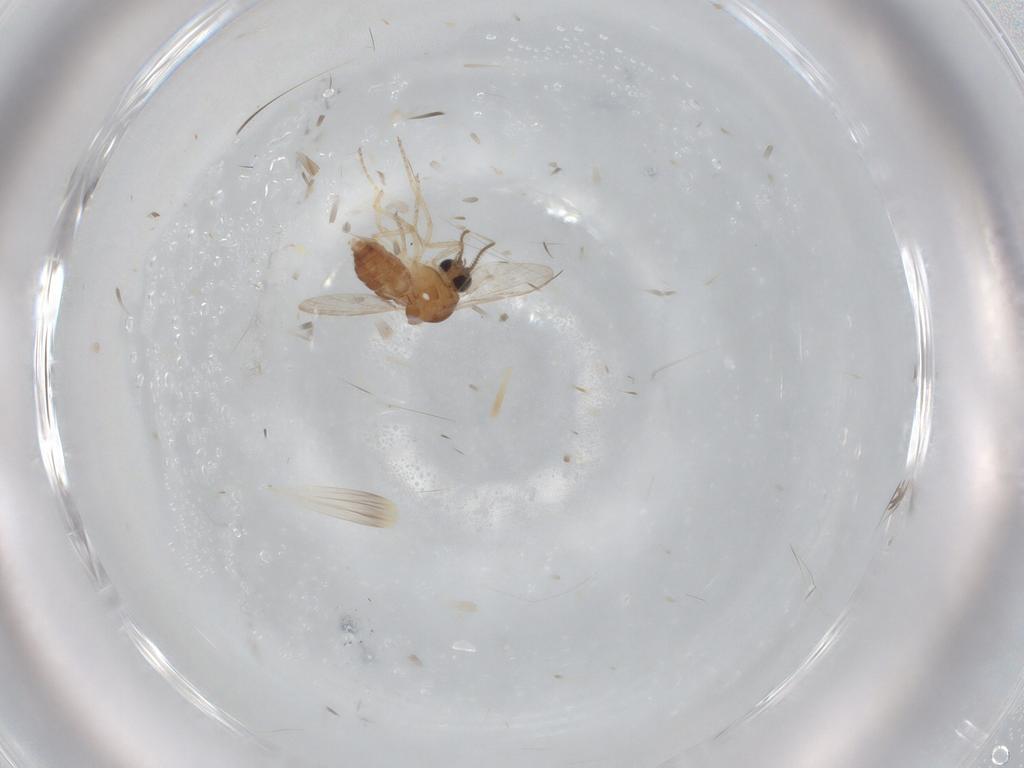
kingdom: Animalia
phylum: Arthropoda
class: Insecta
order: Diptera
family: Ceratopogonidae
